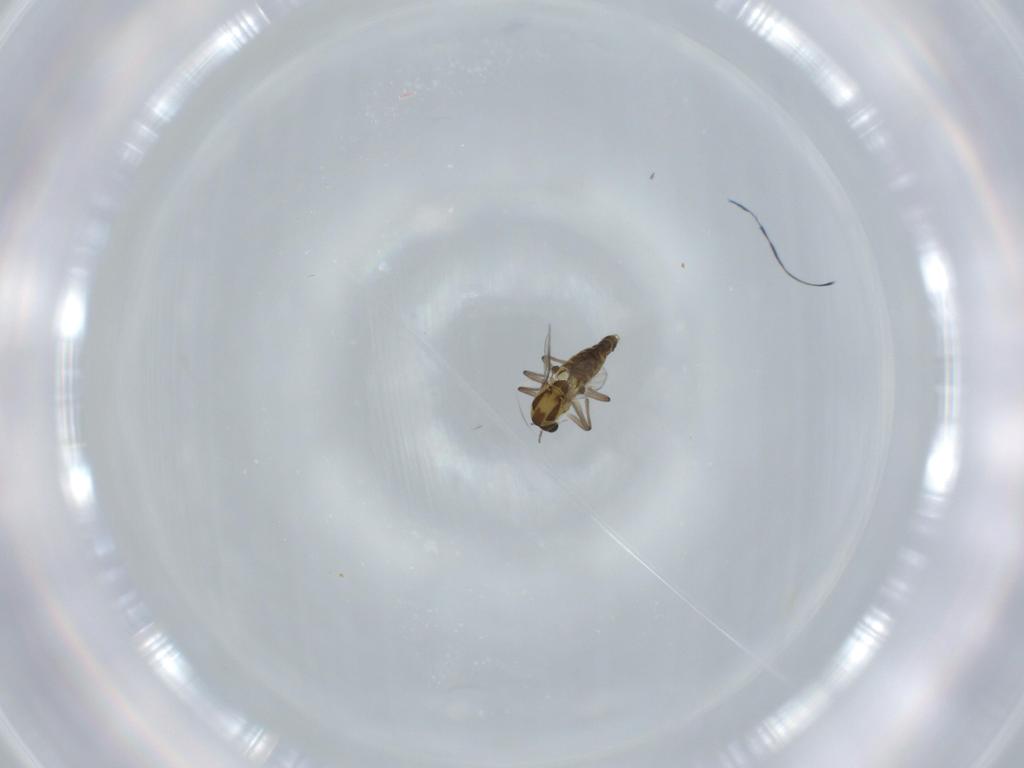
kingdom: Animalia
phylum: Arthropoda
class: Insecta
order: Diptera
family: Chironomidae
